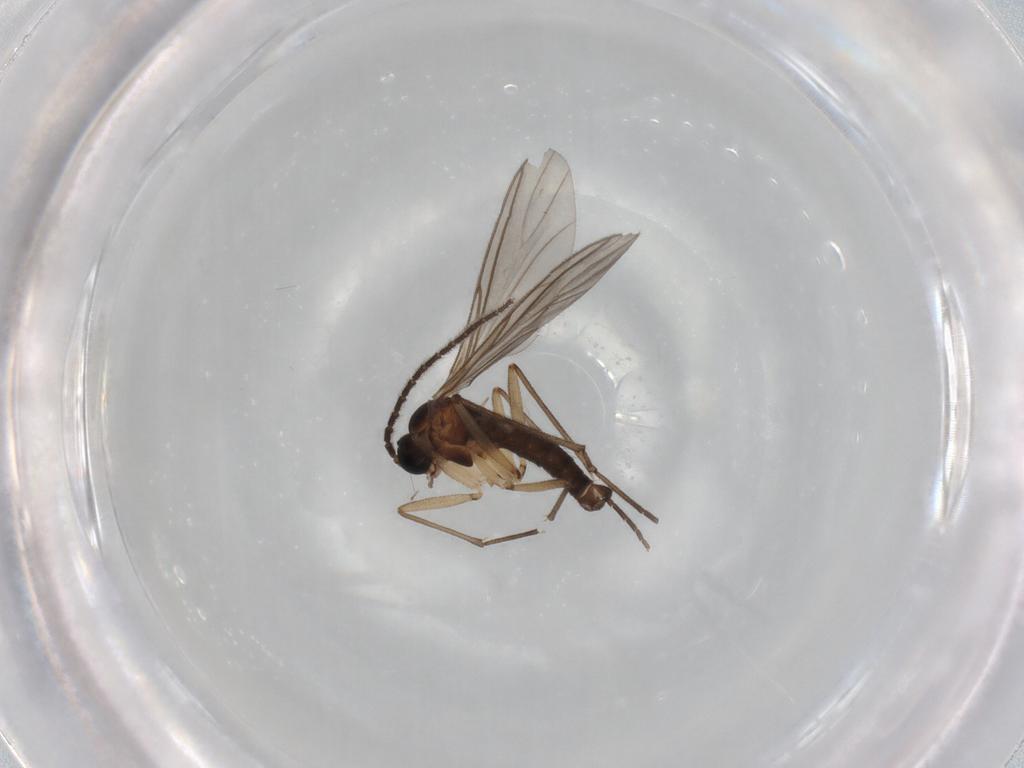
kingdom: Animalia
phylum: Arthropoda
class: Insecta
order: Diptera
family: Sciaridae
